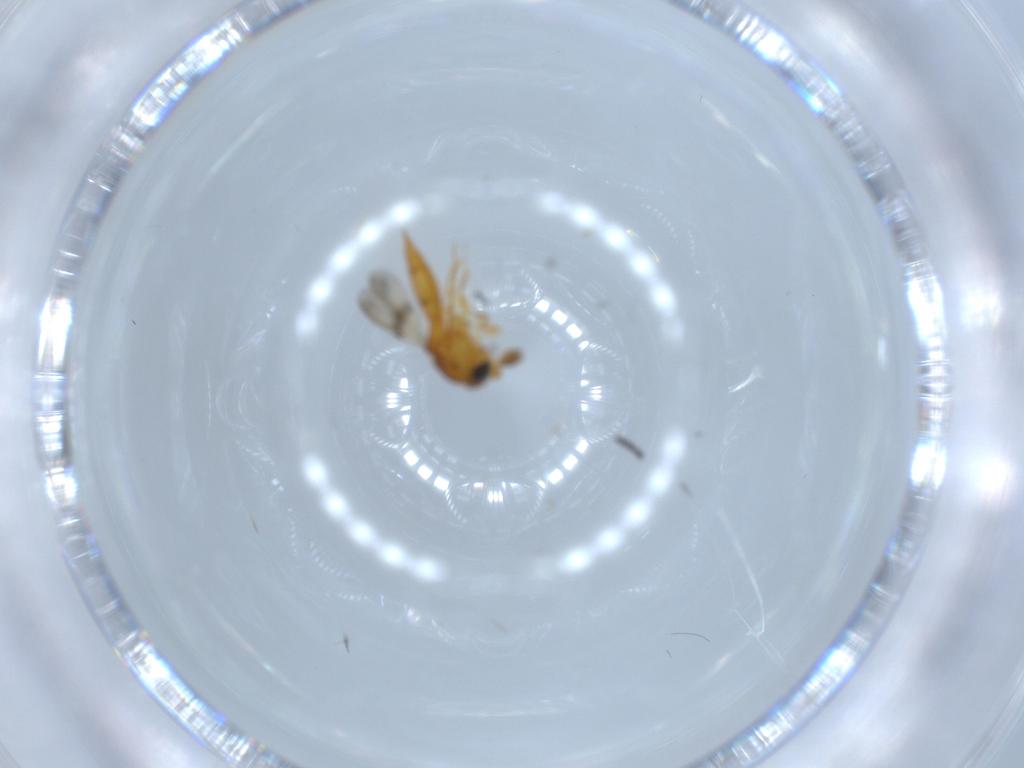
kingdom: Animalia
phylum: Arthropoda
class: Insecta
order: Hymenoptera
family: Scelionidae
